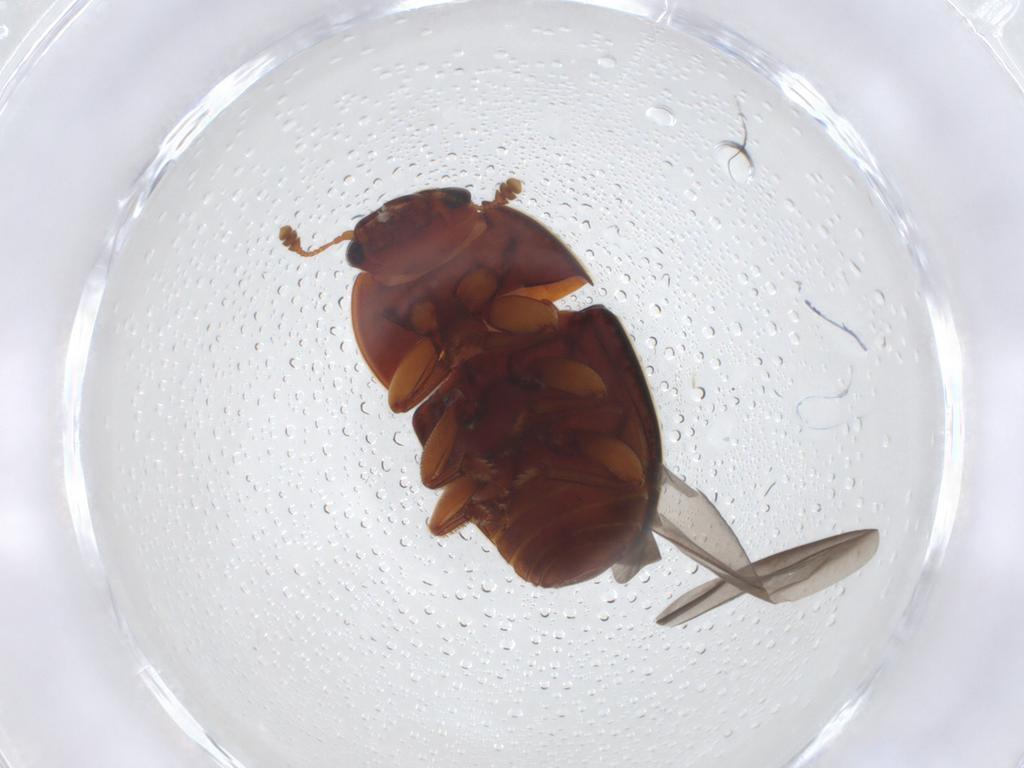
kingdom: Animalia
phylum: Arthropoda
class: Insecta
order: Coleoptera
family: Nitidulidae
